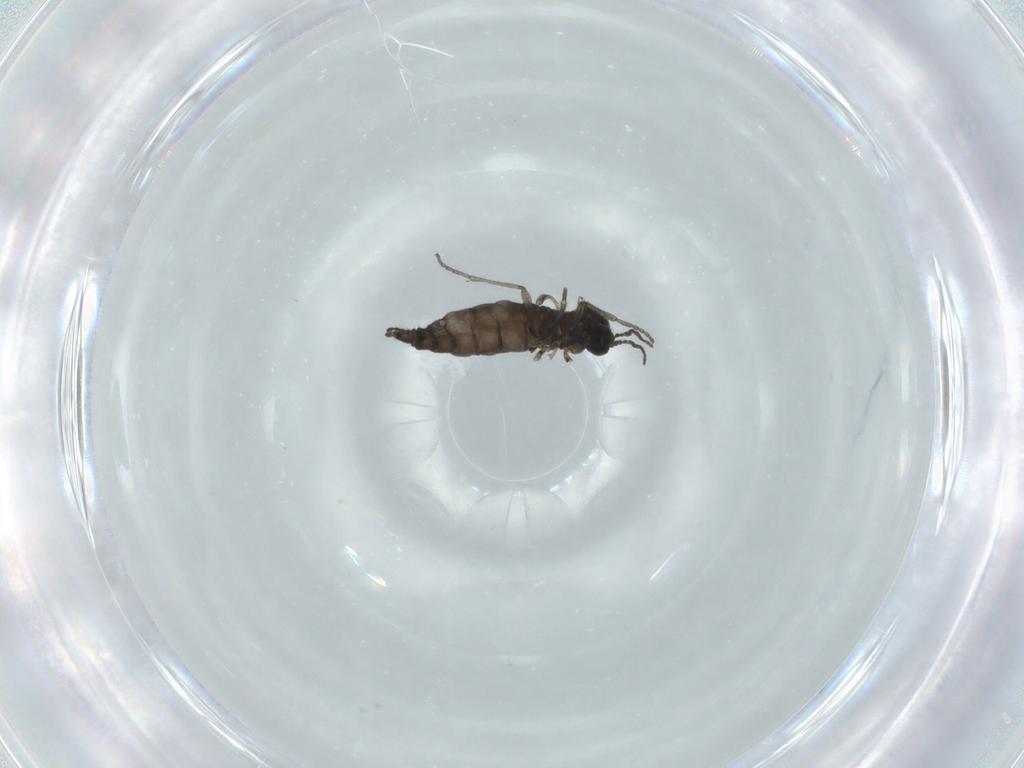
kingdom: Animalia
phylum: Arthropoda
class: Insecta
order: Diptera
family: Sciaridae
